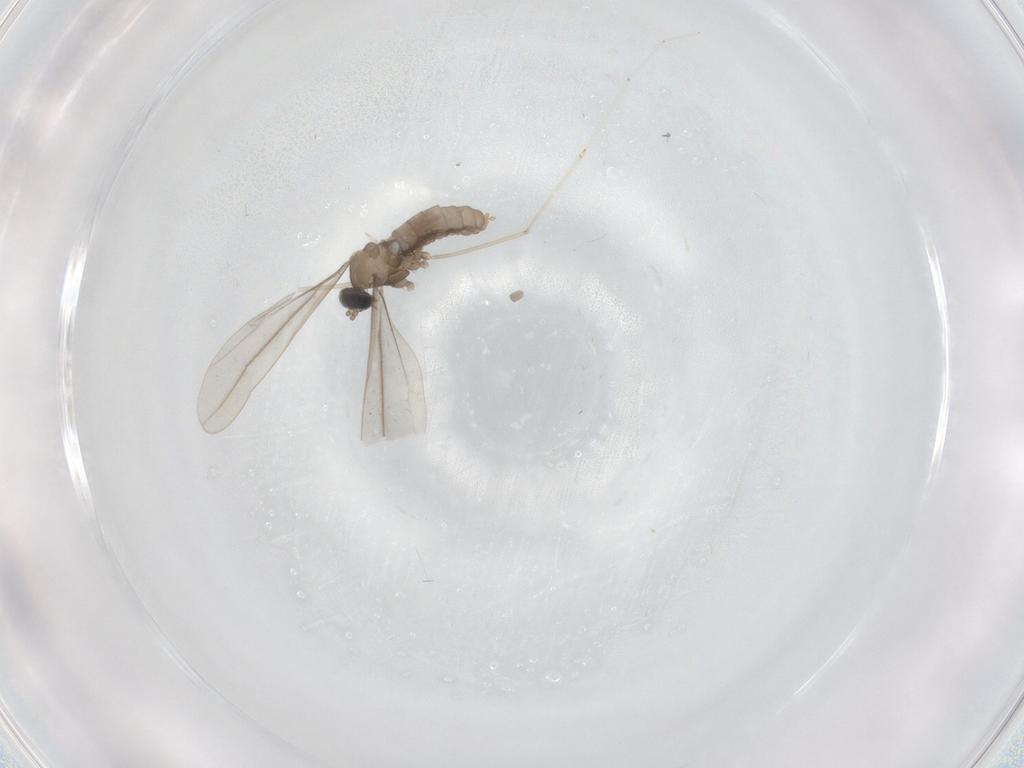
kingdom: Animalia
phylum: Arthropoda
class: Insecta
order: Diptera
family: Cecidomyiidae
